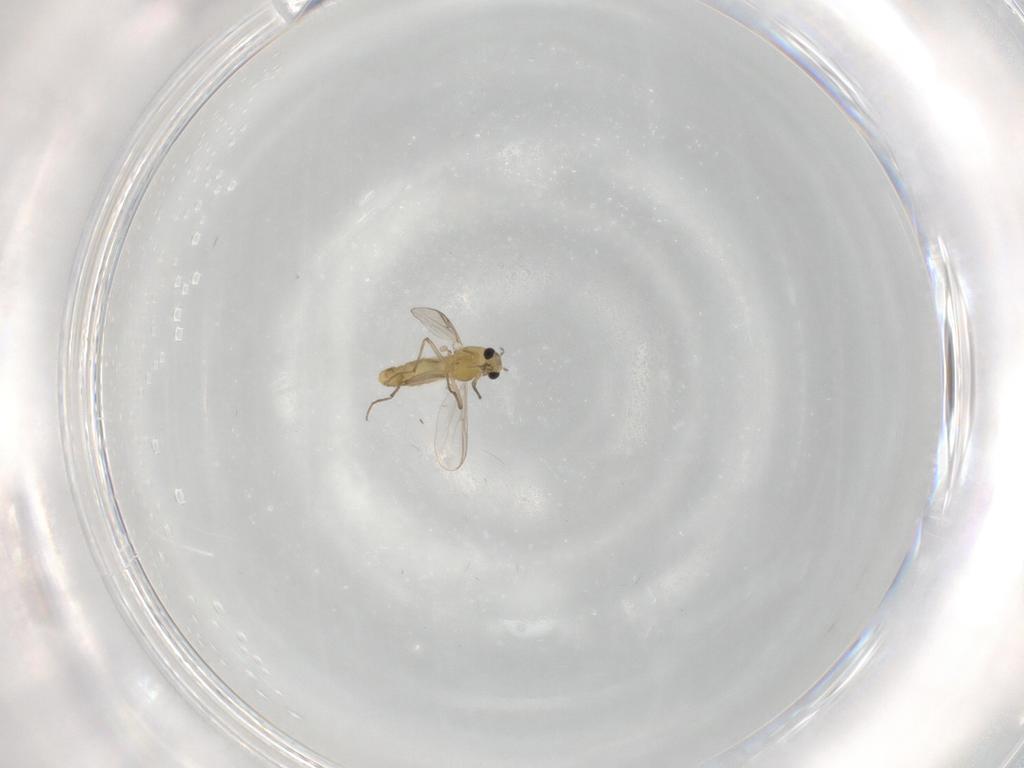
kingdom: Animalia
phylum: Arthropoda
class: Insecta
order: Diptera
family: Chironomidae
